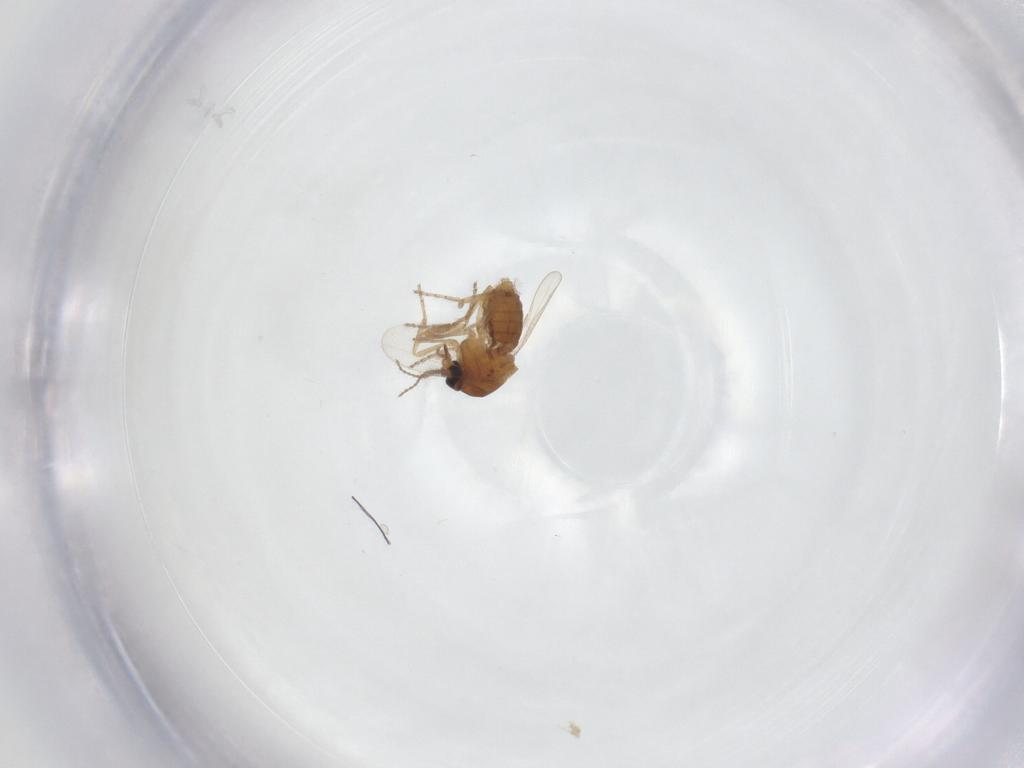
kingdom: Animalia
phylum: Arthropoda
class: Insecta
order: Diptera
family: Ceratopogonidae
